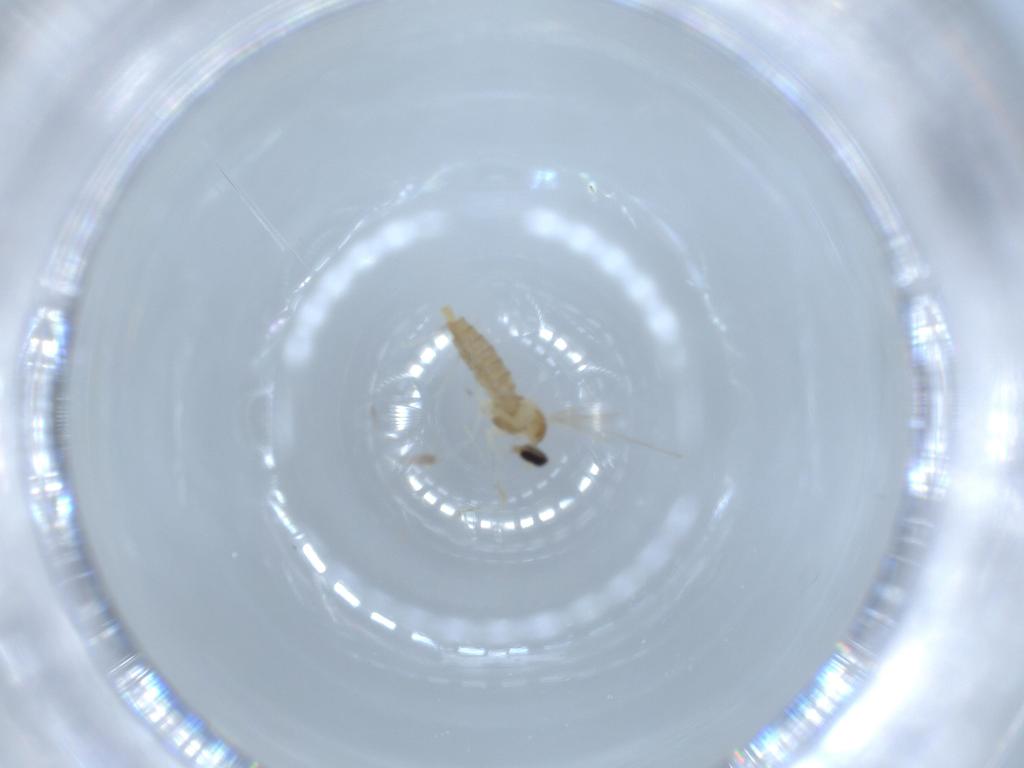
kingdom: Animalia
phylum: Arthropoda
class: Insecta
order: Diptera
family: Cecidomyiidae
